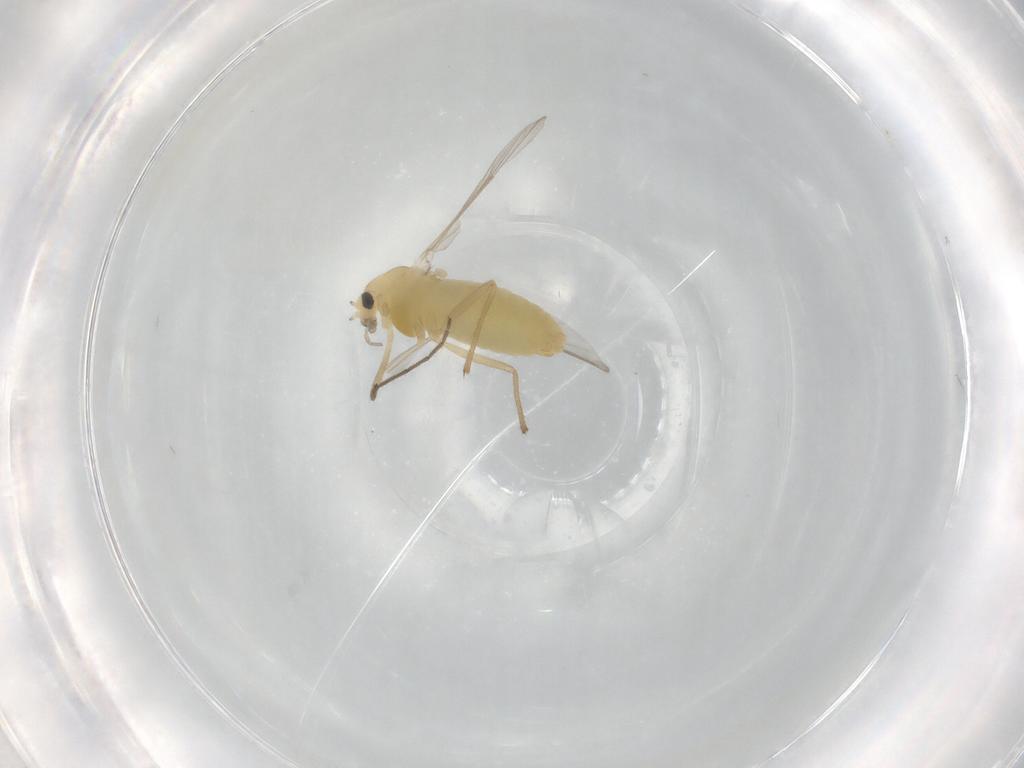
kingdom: Animalia
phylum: Arthropoda
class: Insecta
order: Diptera
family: Chironomidae
